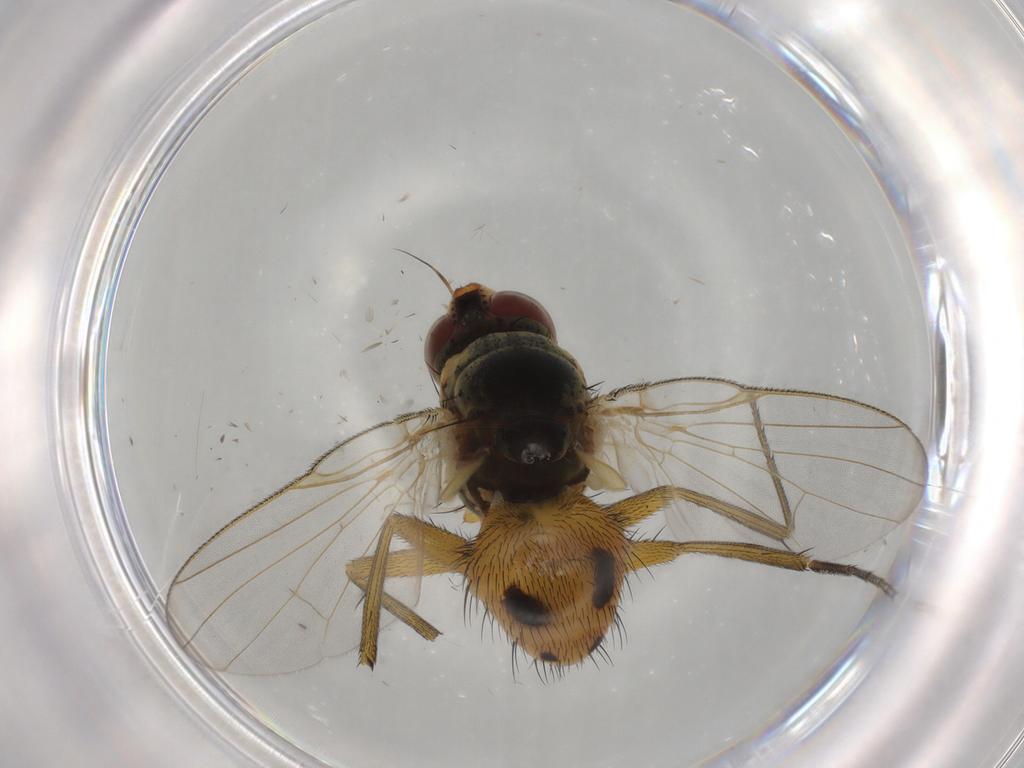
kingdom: Animalia
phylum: Arthropoda
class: Insecta
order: Diptera
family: Muscidae
